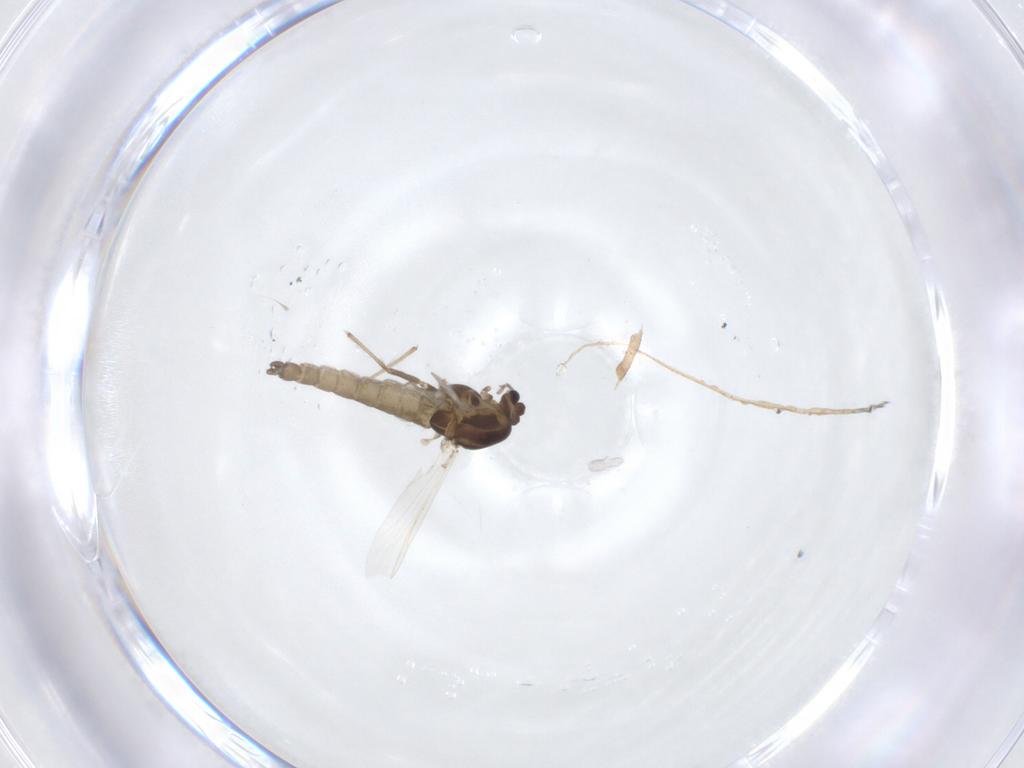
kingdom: Animalia
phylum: Arthropoda
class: Insecta
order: Diptera
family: Chironomidae
